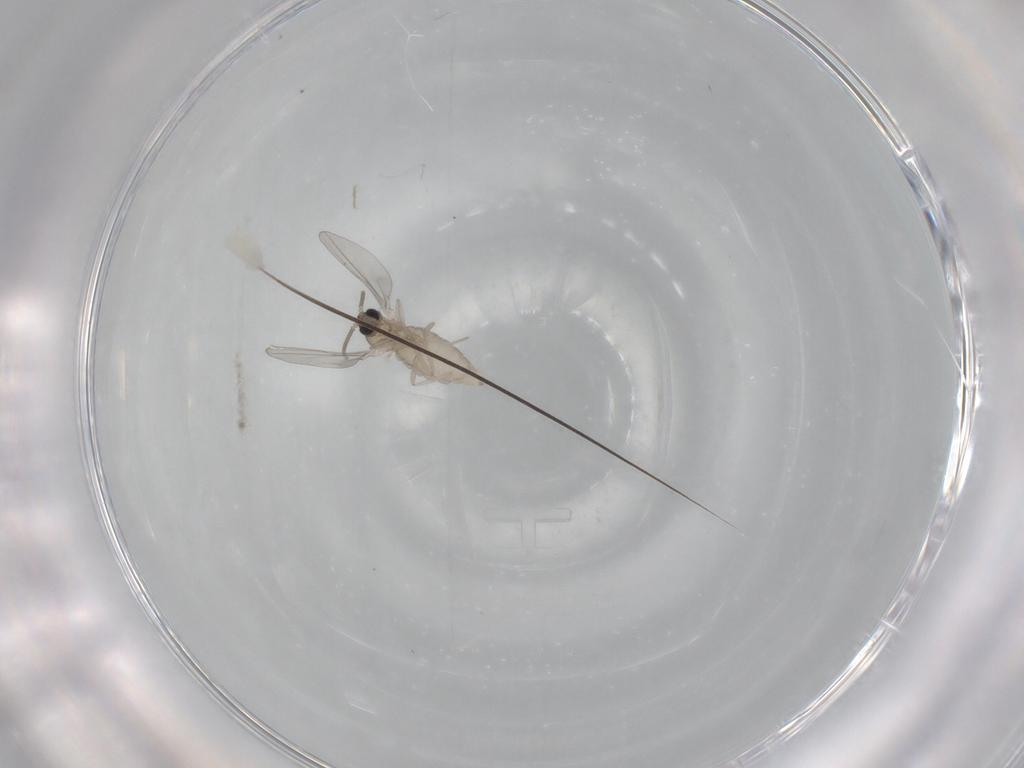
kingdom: Animalia
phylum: Arthropoda
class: Insecta
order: Diptera
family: Cecidomyiidae
